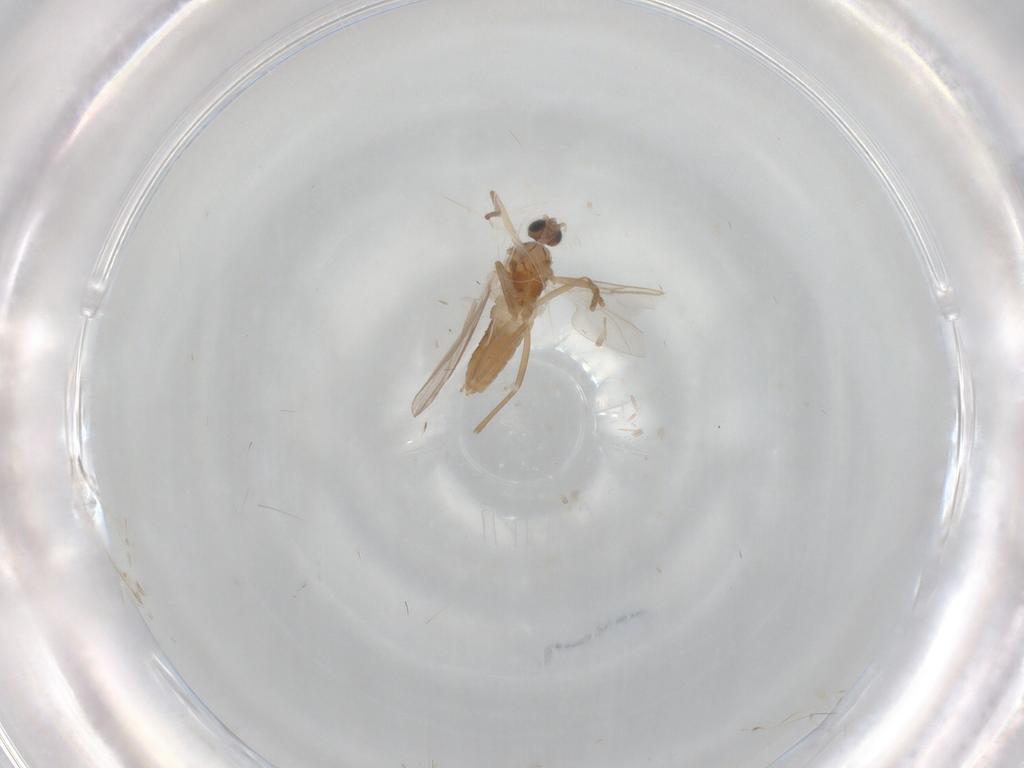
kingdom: Animalia
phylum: Arthropoda
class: Insecta
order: Diptera
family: Cecidomyiidae
